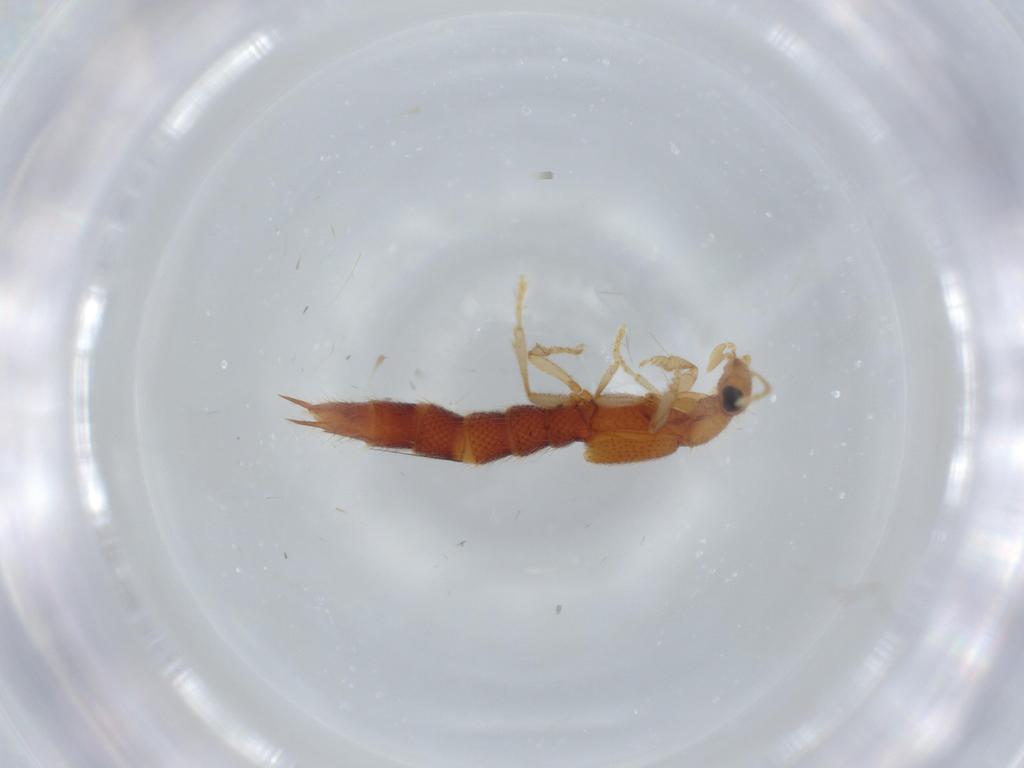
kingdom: Animalia
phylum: Arthropoda
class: Insecta
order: Coleoptera
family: Staphylinidae
